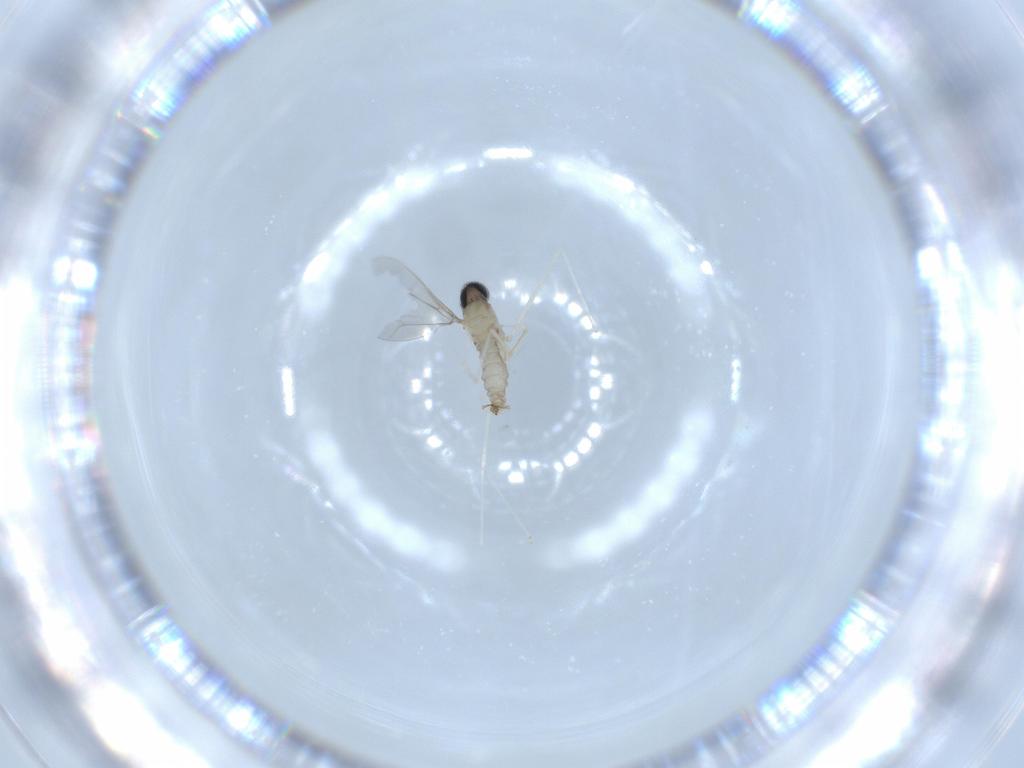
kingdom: Animalia
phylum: Arthropoda
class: Insecta
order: Diptera
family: Cecidomyiidae
